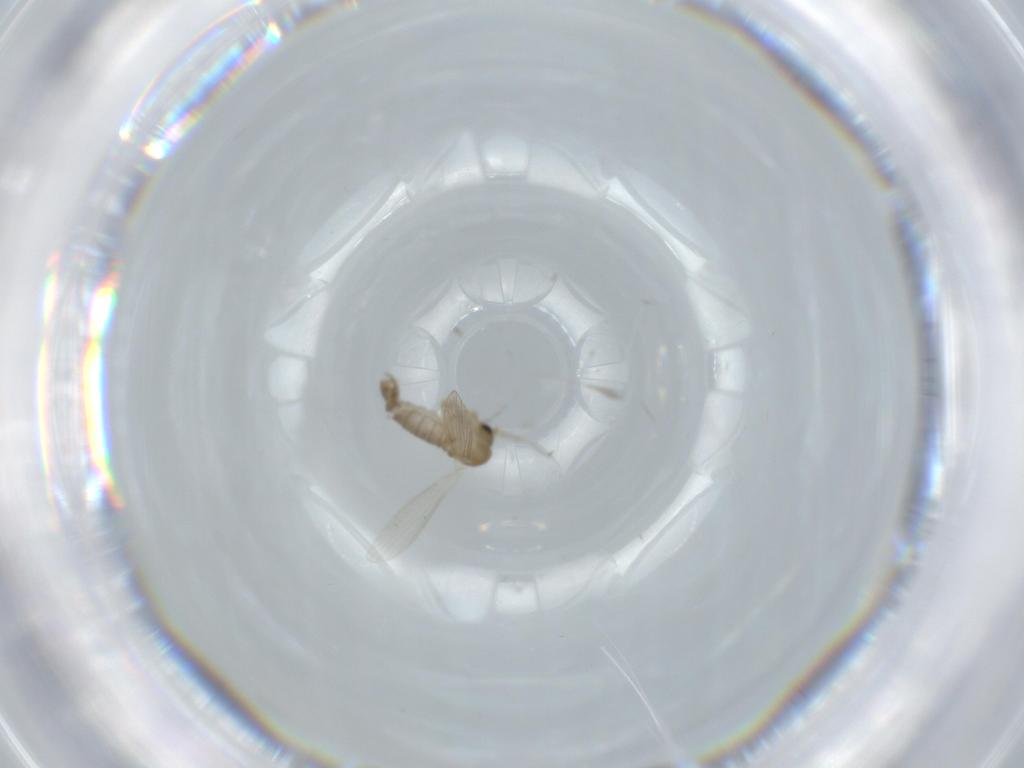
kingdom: Animalia
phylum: Arthropoda
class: Insecta
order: Diptera
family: Psychodidae
